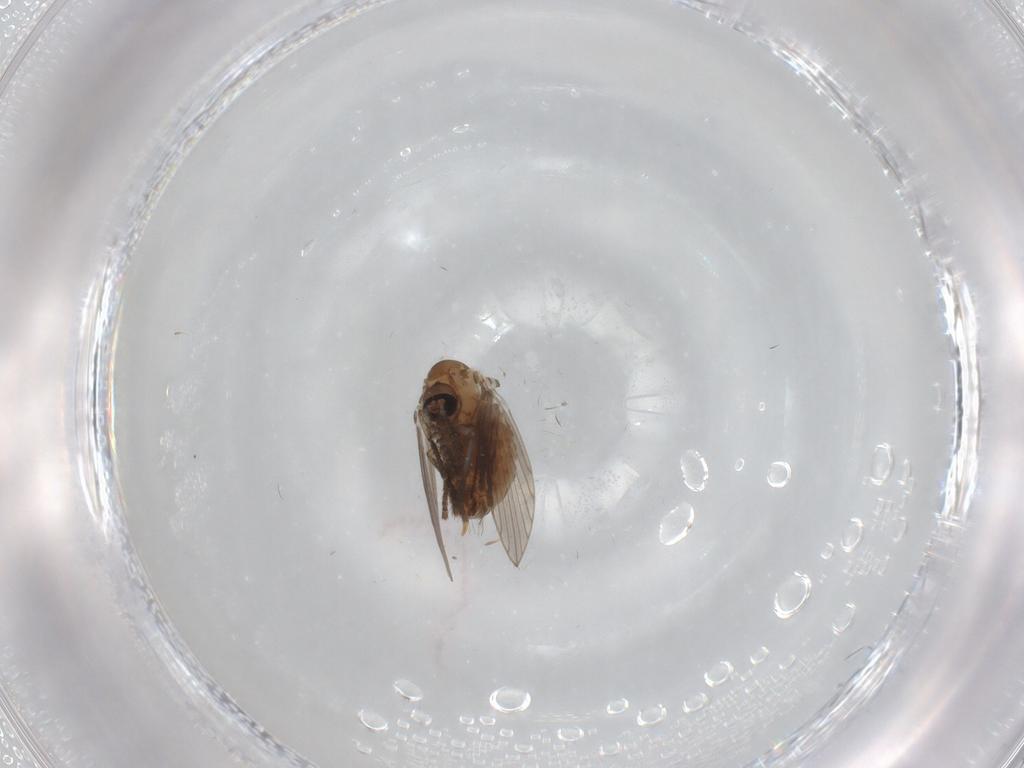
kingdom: Animalia
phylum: Arthropoda
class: Insecta
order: Diptera
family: Psychodidae
